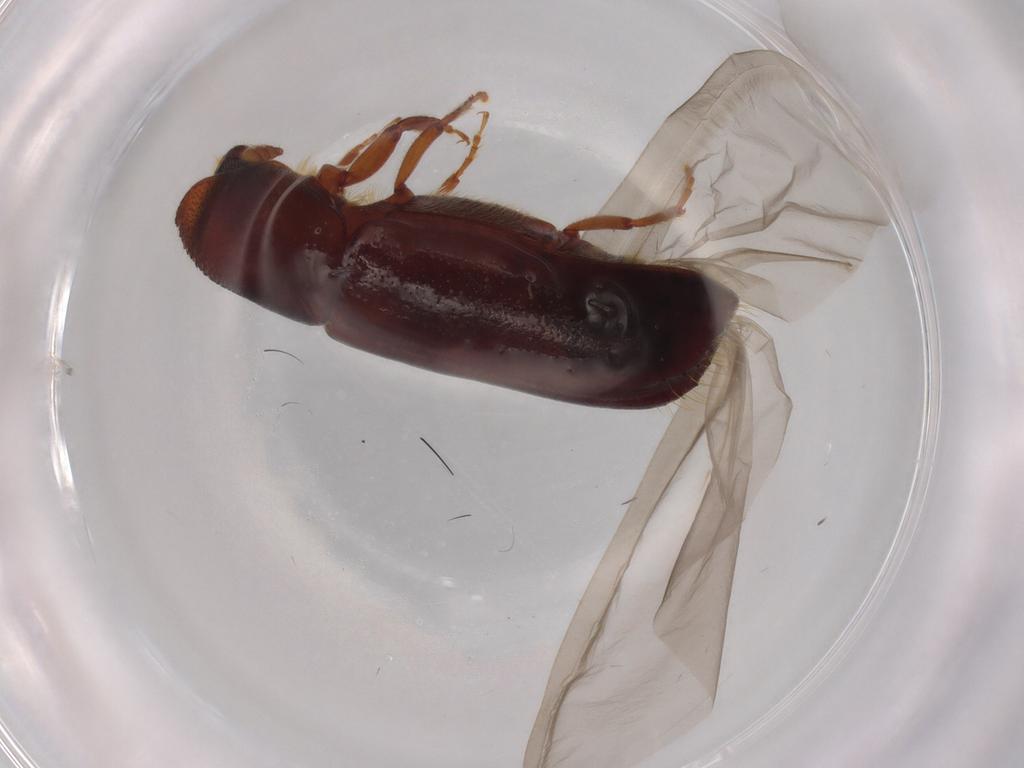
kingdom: Animalia
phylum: Arthropoda
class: Insecta
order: Coleoptera
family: Curculionidae
